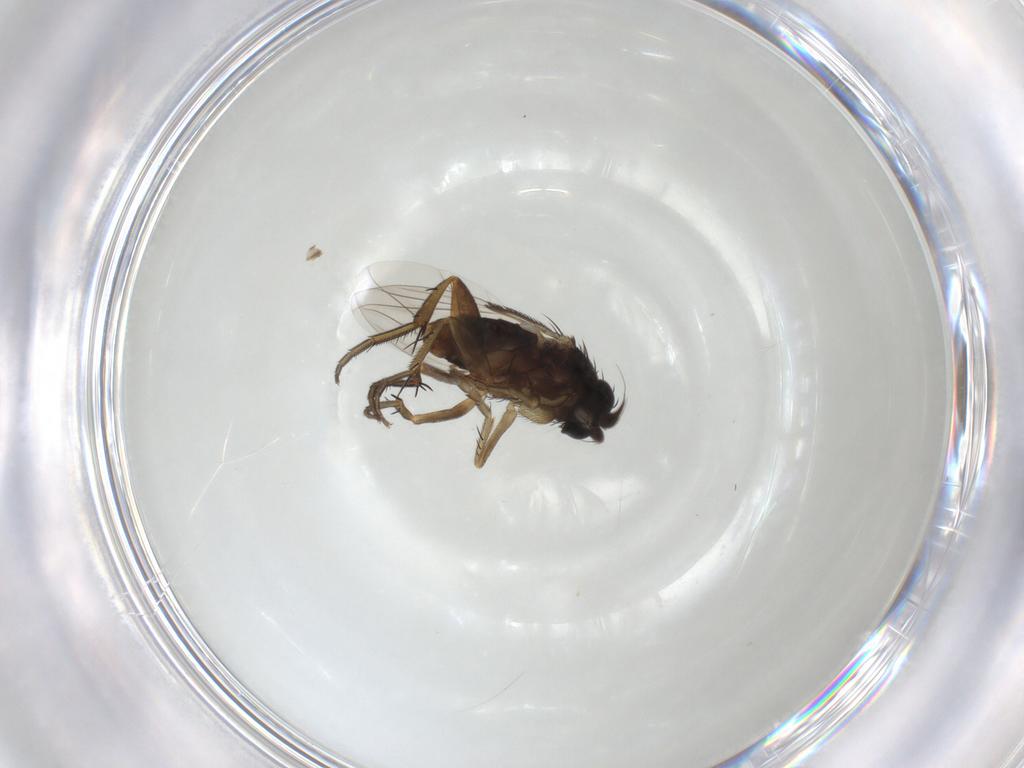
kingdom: Animalia
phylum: Arthropoda
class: Insecta
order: Diptera
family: Phoridae
